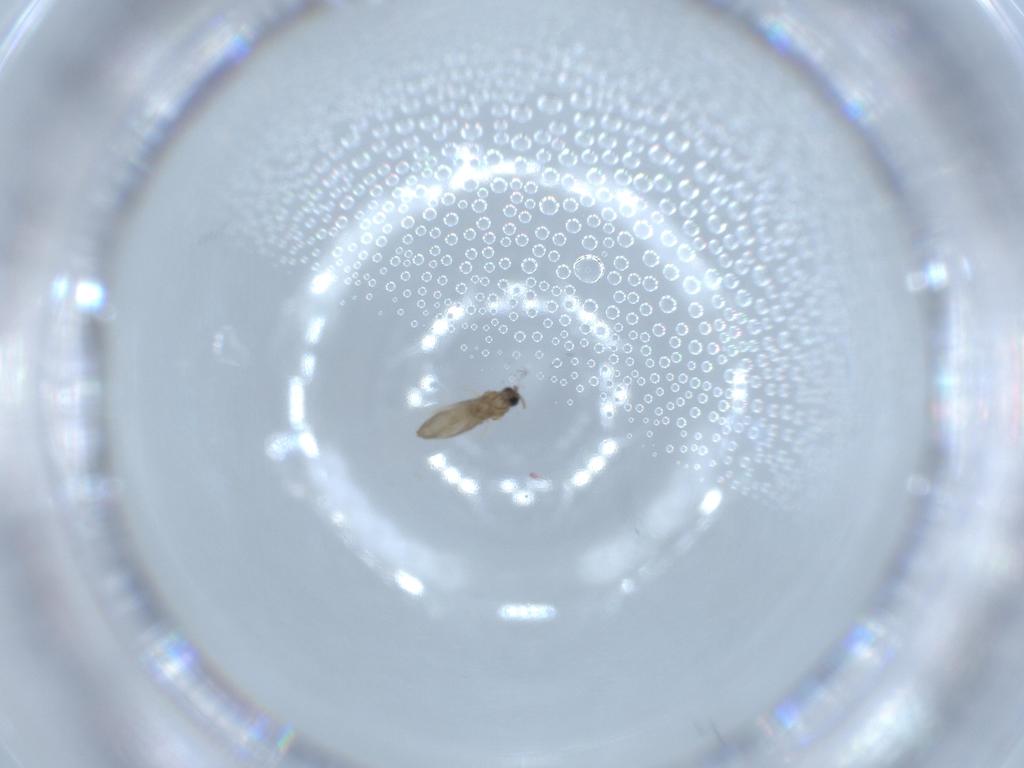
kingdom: Animalia
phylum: Arthropoda
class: Insecta
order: Diptera
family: Cecidomyiidae
